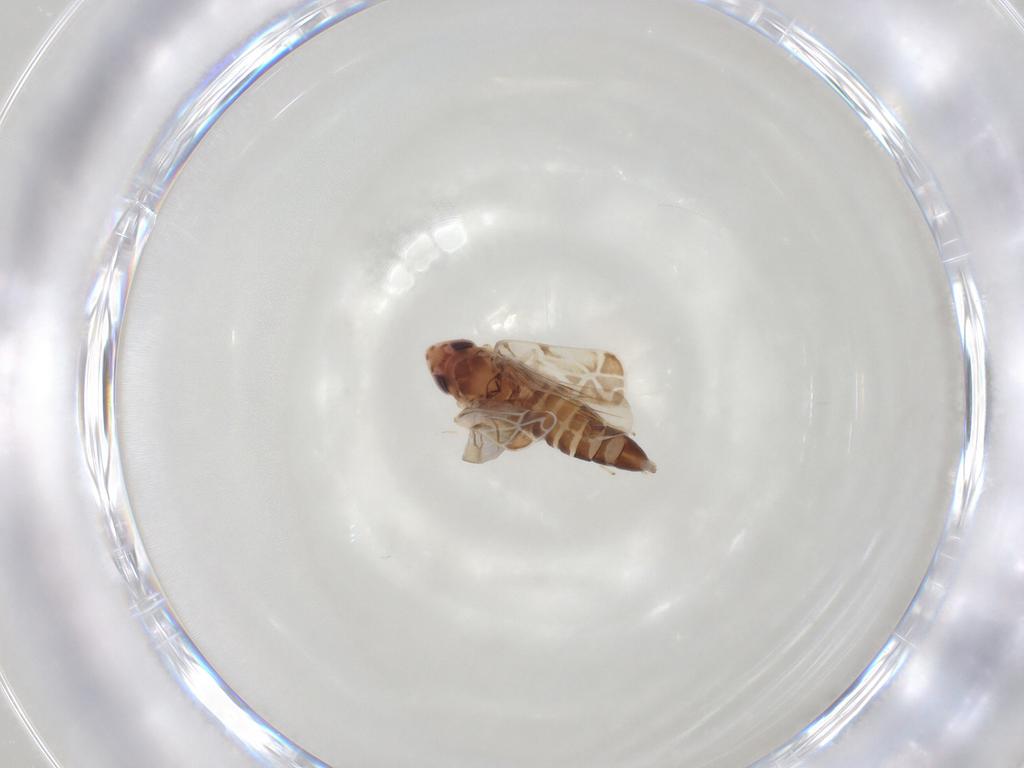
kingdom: Animalia
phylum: Arthropoda
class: Insecta
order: Hemiptera
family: Cicadellidae
